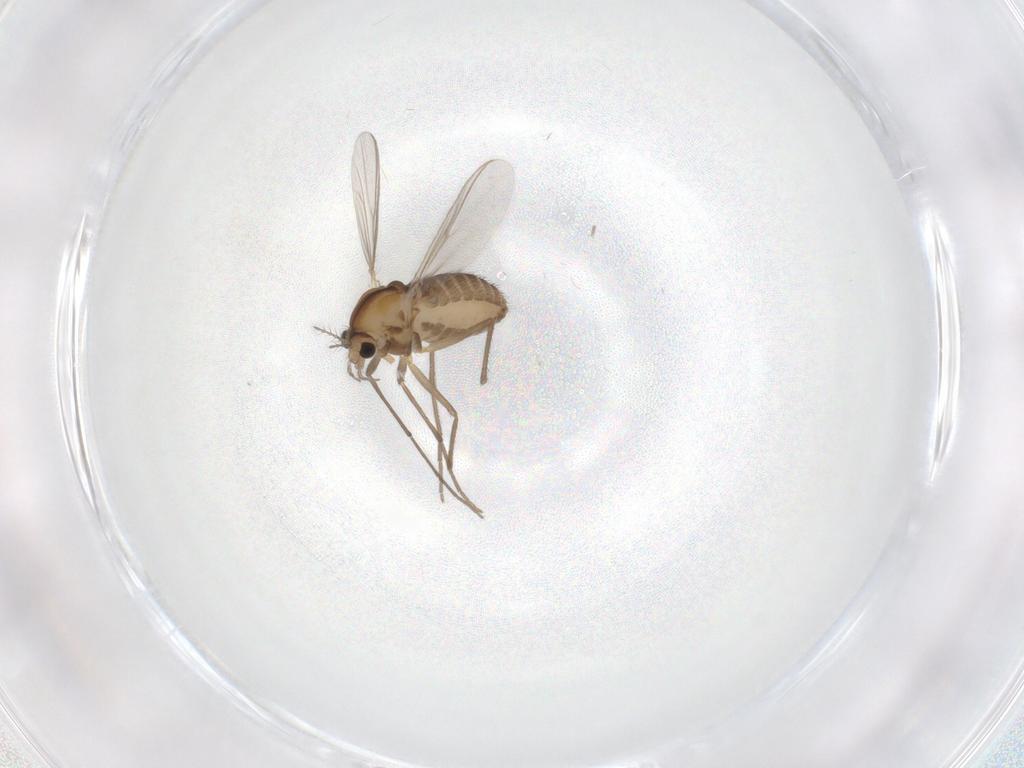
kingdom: Animalia
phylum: Arthropoda
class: Insecta
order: Diptera
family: Chironomidae
